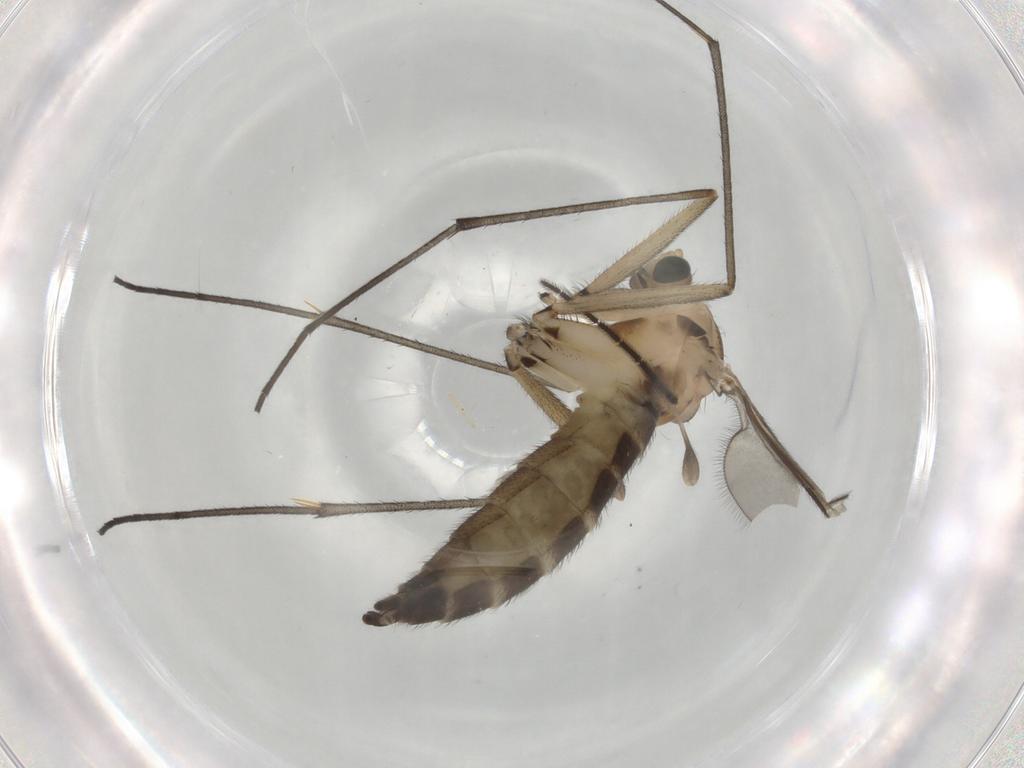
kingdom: Animalia
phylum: Arthropoda
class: Insecta
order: Diptera
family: Sciaridae
